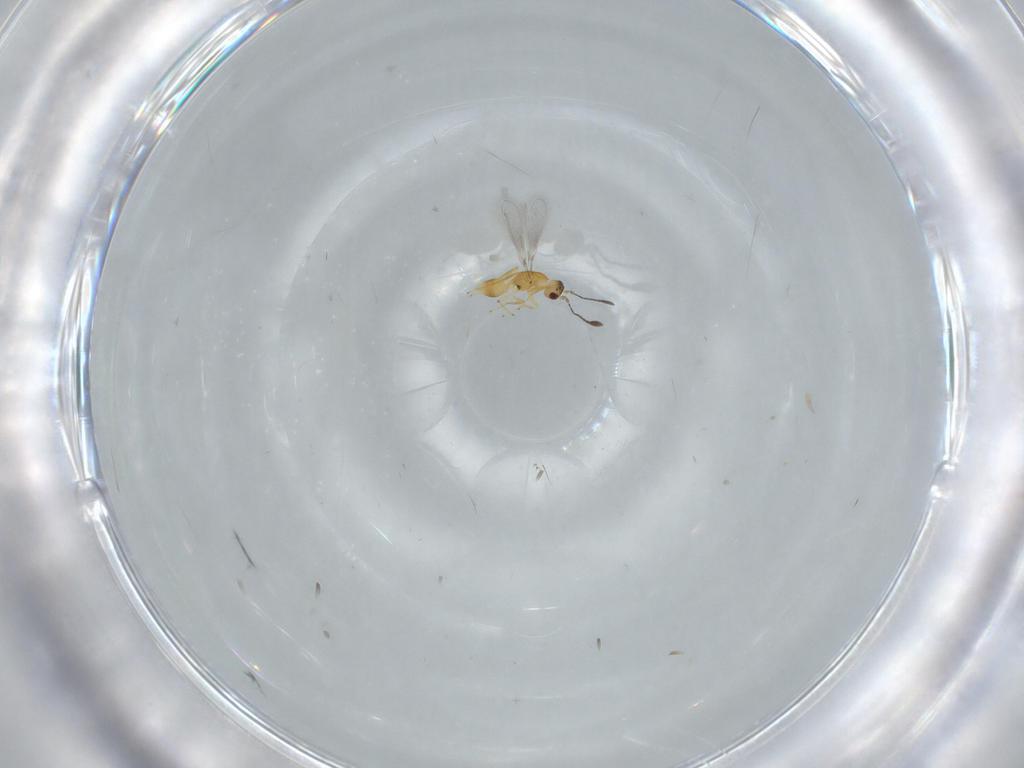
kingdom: Animalia
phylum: Arthropoda
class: Insecta
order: Hymenoptera
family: Mymaridae
